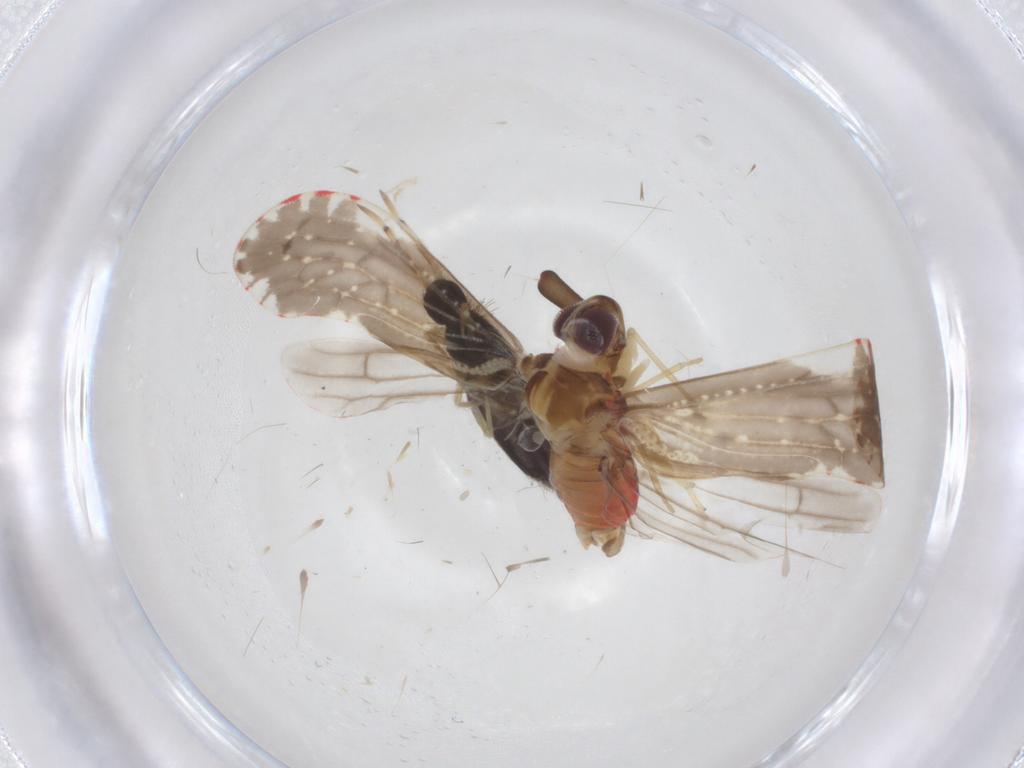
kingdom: Animalia
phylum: Arthropoda
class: Insecta
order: Hemiptera
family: Derbidae
